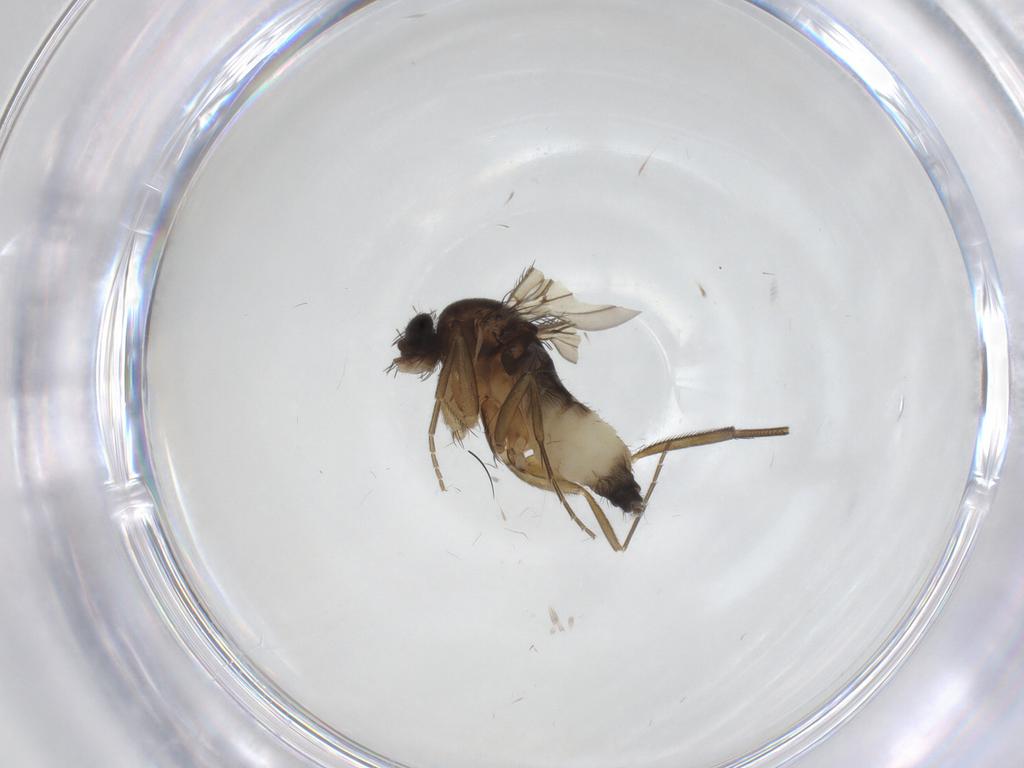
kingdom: Animalia
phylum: Arthropoda
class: Insecta
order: Diptera
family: Phoridae
